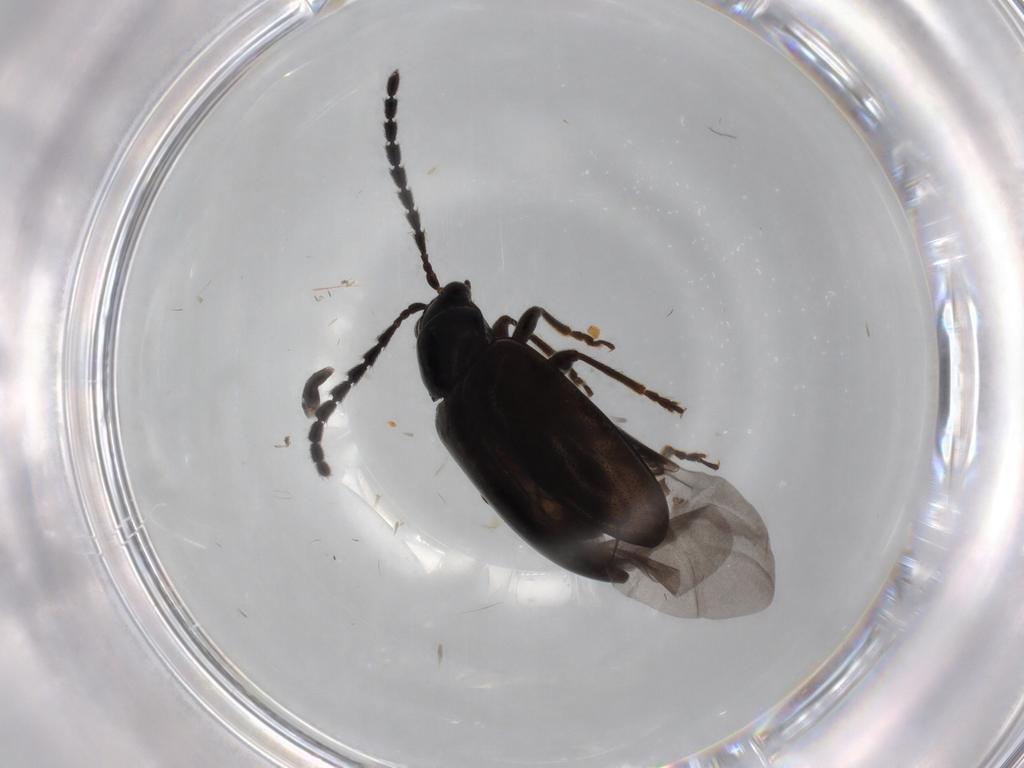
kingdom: Animalia
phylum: Arthropoda
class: Insecta
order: Coleoptera
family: Chrysomelidae
